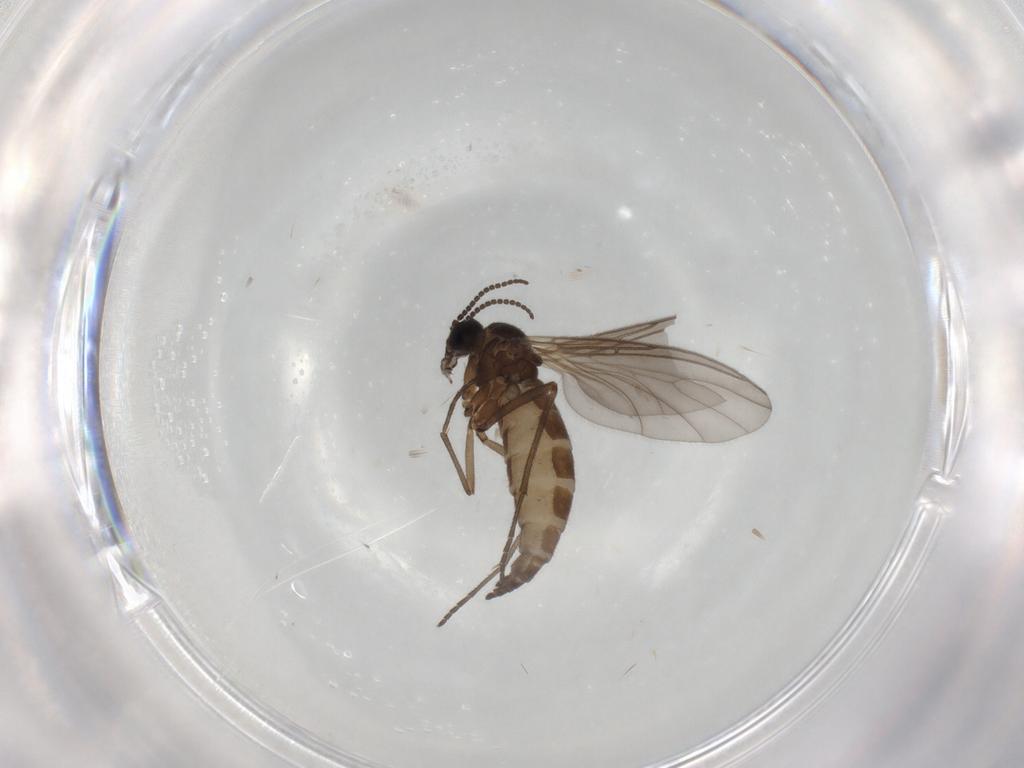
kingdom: Animalia
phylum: Arthropoda
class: Insecta
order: Diptera
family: Sciaridae
